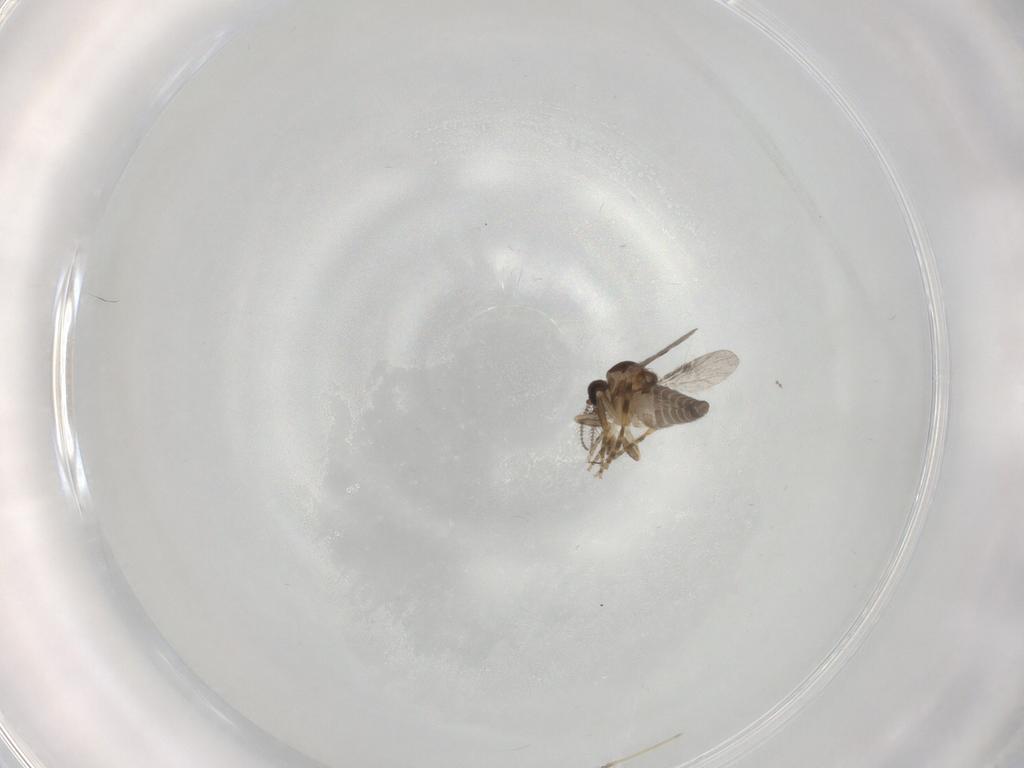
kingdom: Animalia
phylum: Arthropoda
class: Insecta
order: Diptera
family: Ceratopogonidae
